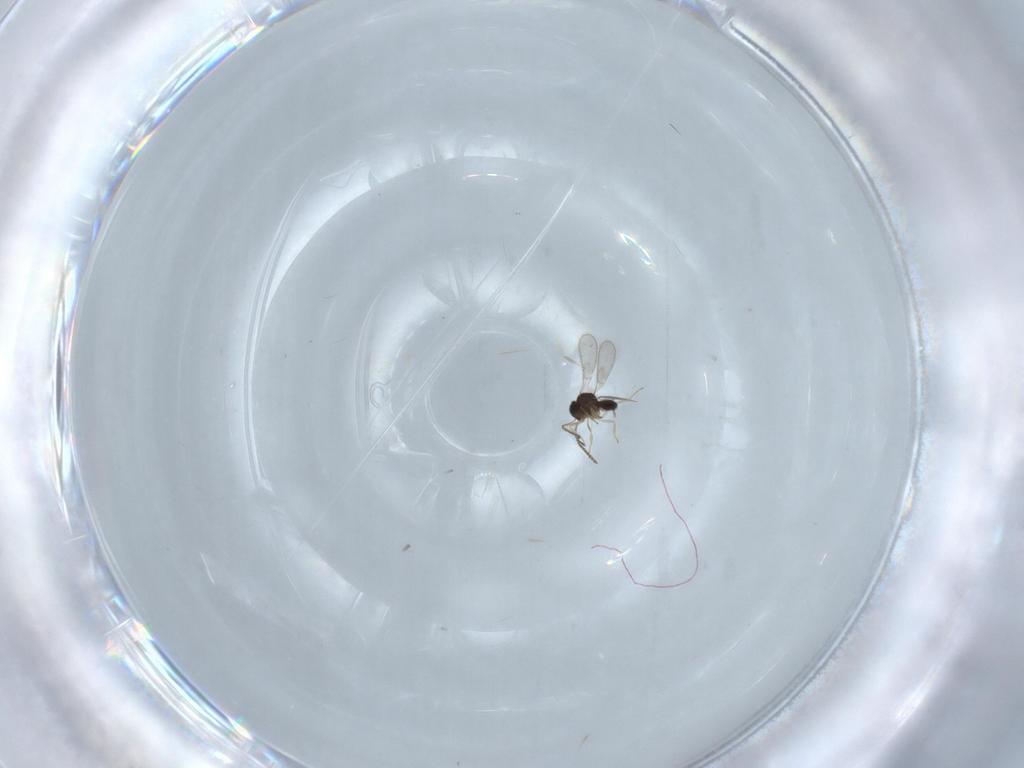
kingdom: Animalia
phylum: Arthropoda
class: Insecta
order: Hymenoptera
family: Scelionidae
